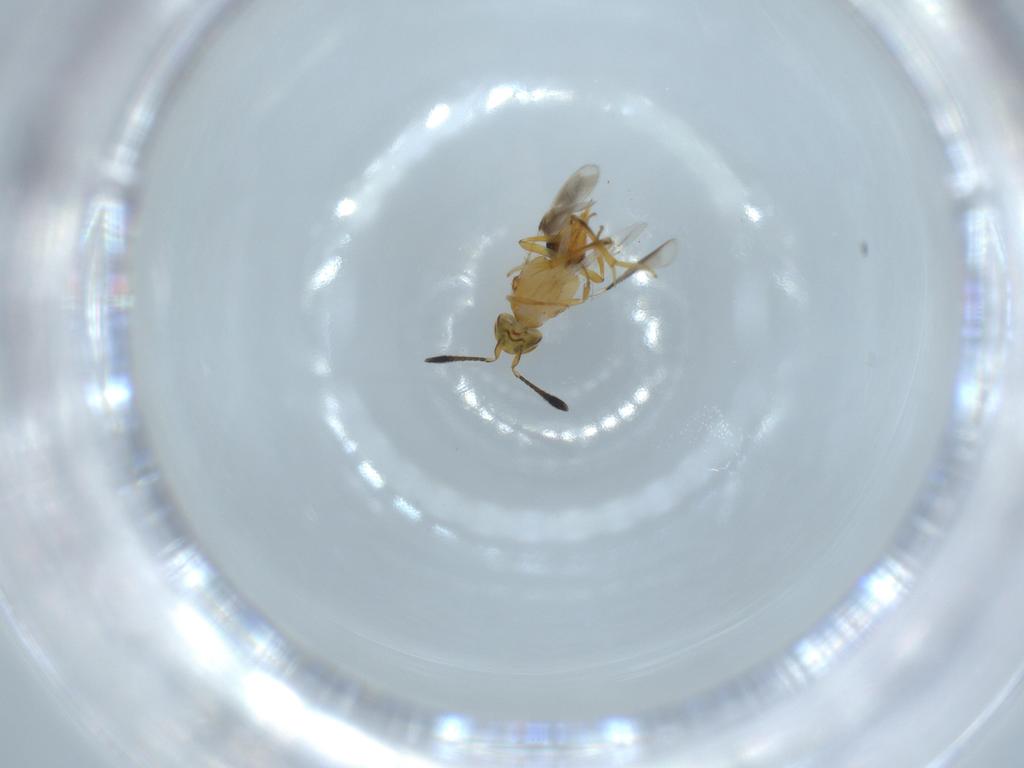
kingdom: Animalia
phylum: Arthropoda
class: Insecta
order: Hymenoptera
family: Encyrtidae
